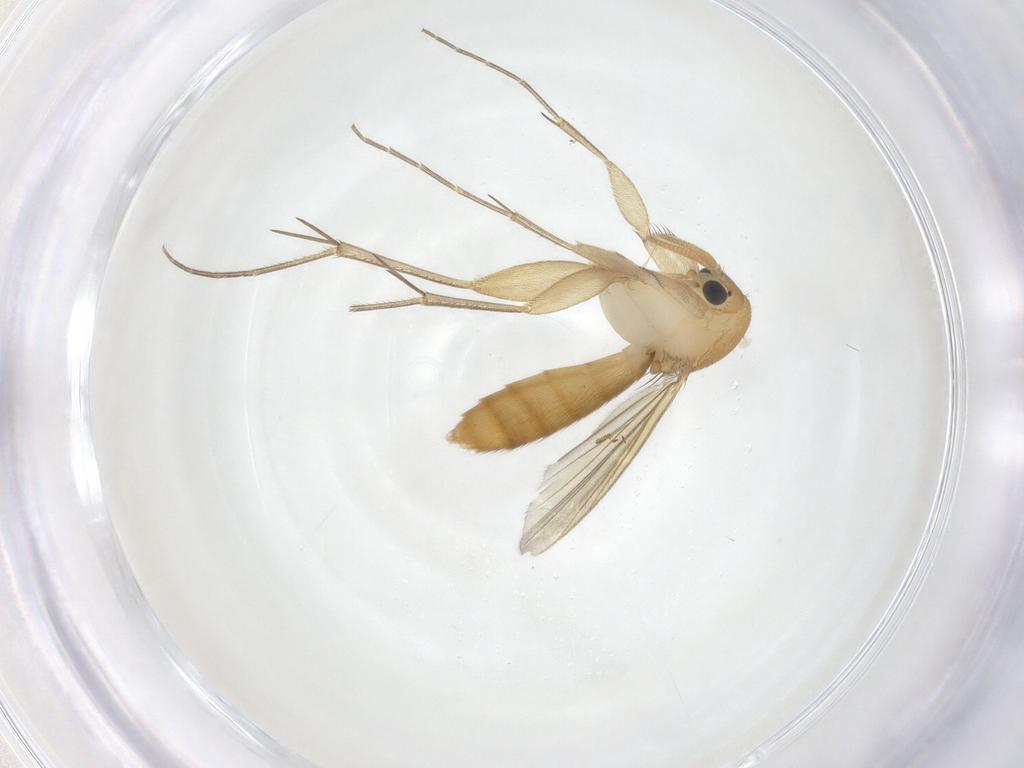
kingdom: Animalia
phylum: Arthropoda
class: Insecta
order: Diptera
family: Mycetophilidae
